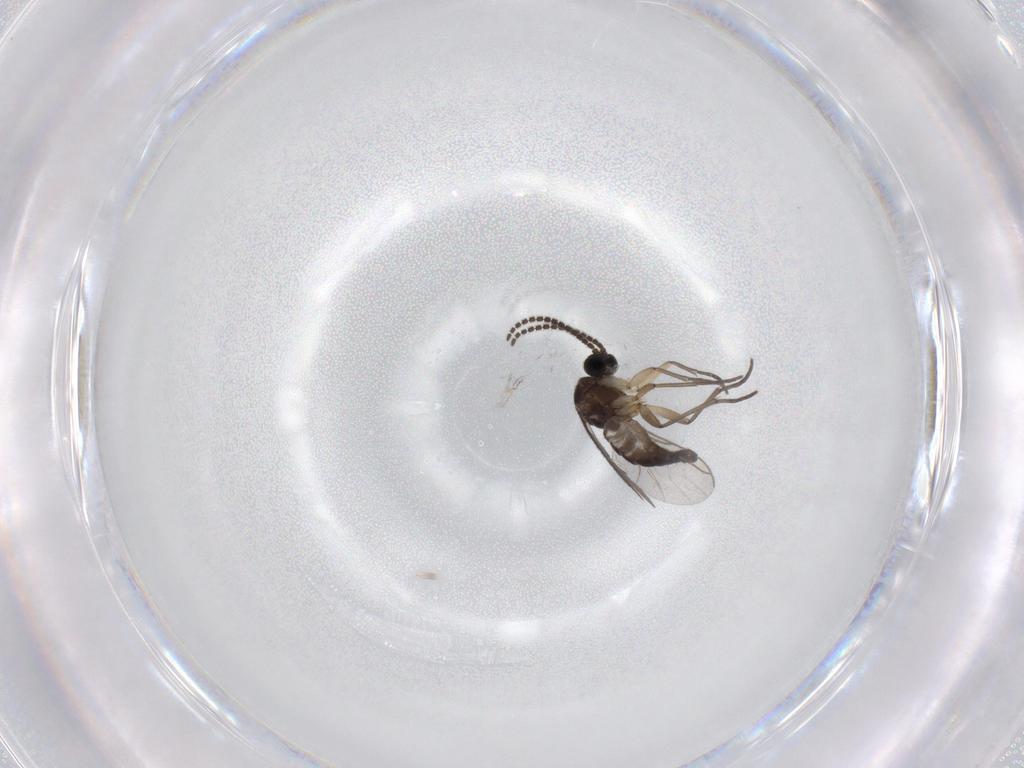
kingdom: Animalia
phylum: Arthropoda
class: Insecta
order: Diptera
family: Sciaridae
